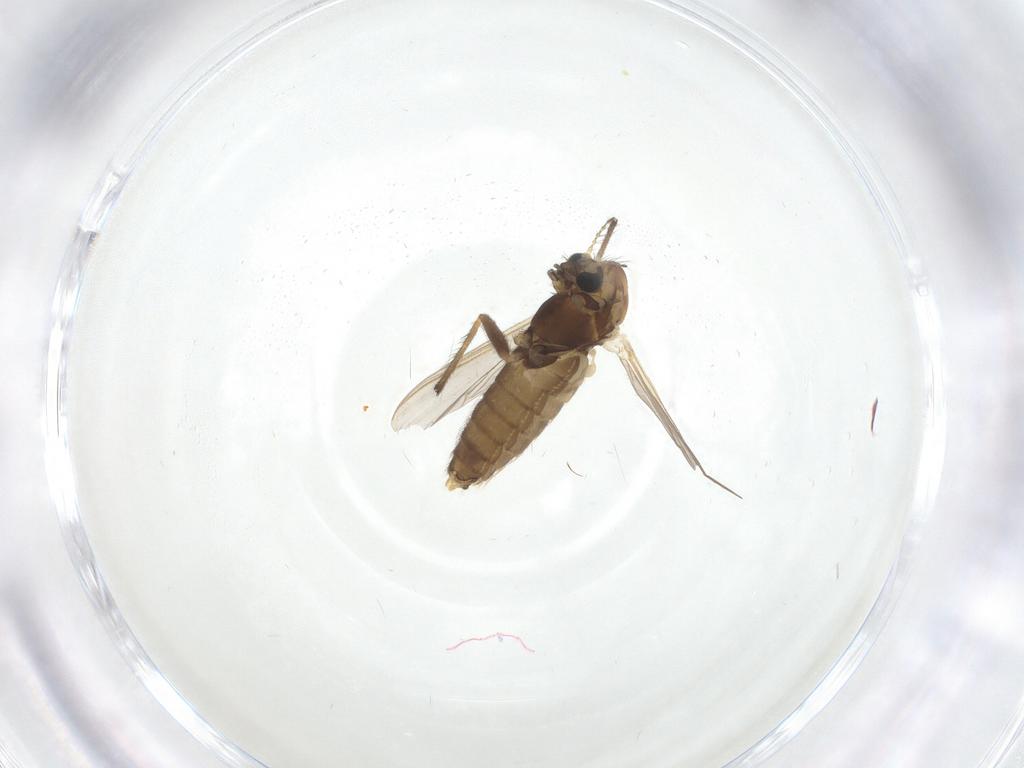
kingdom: Animalia
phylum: Arthropoda
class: Insecta
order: Diptera
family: Chironomidae
